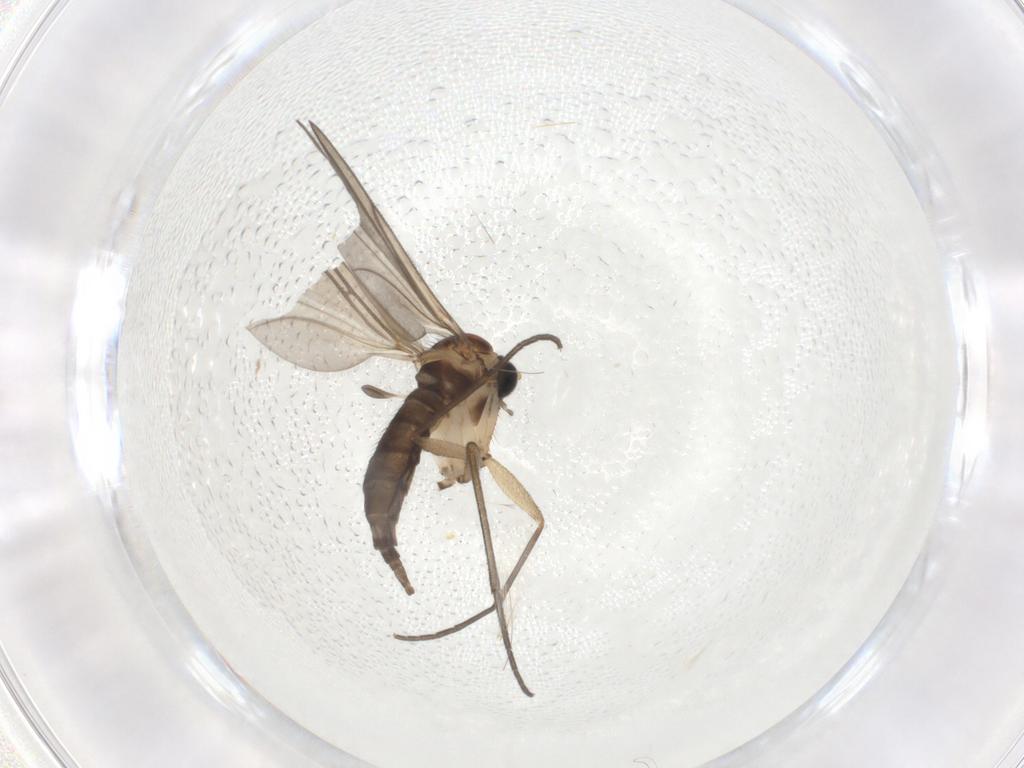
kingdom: Animalia
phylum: Arthropoda
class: Insecta
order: Diptera
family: Sciaridae
